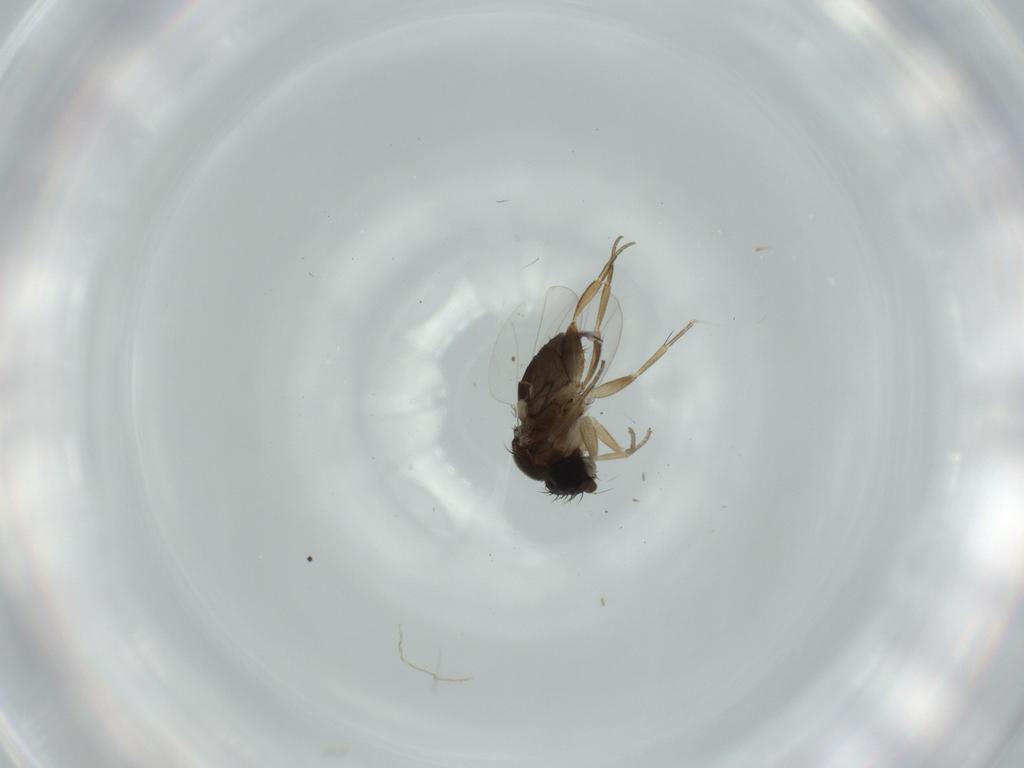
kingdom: Animalia
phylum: Arthropoda
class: Insecta
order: Diptera
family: Phoridae
